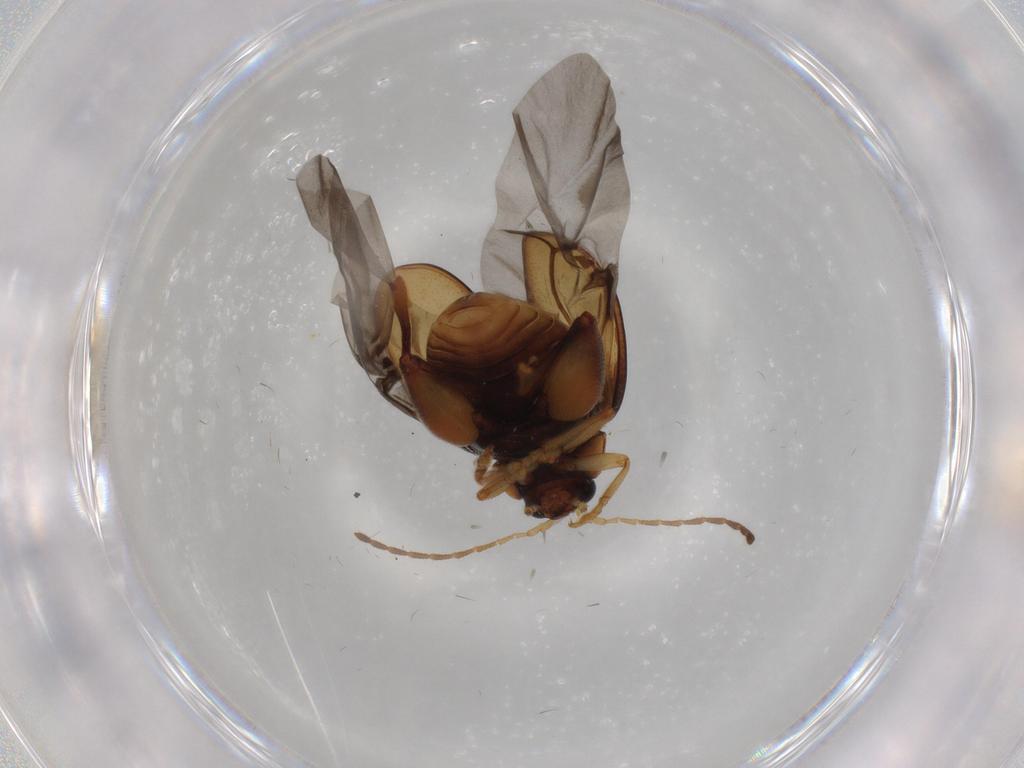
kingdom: Animalia
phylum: Arthropoda
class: Insecta
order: Coleoptera
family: Chrysomelidae
